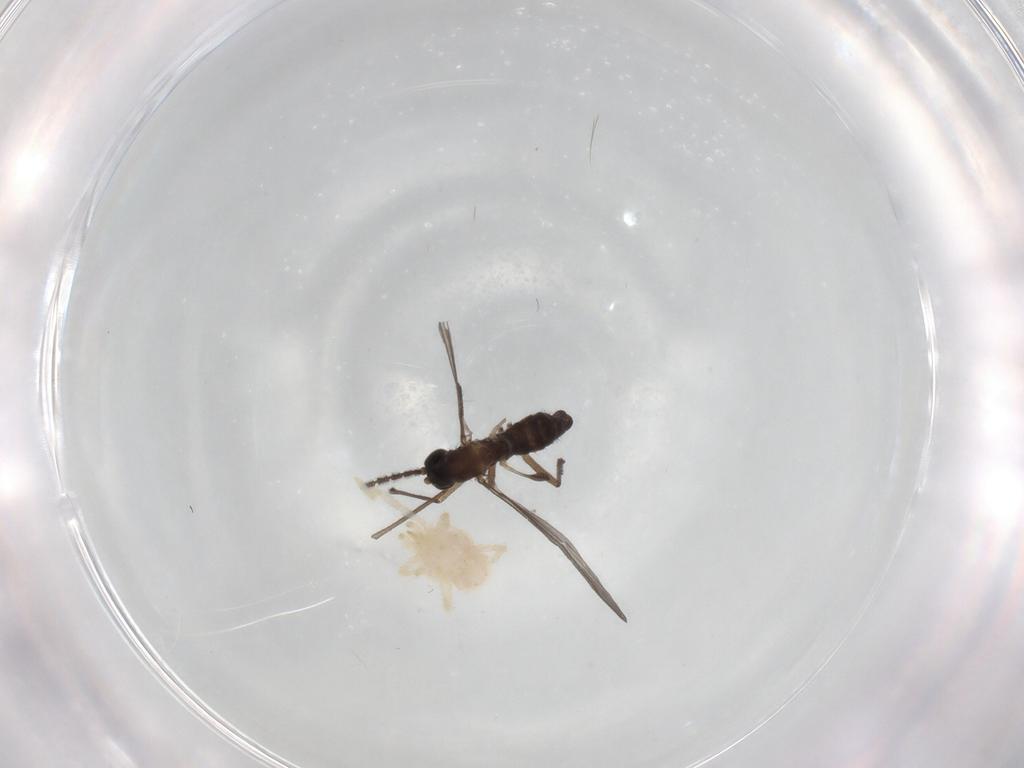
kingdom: Animalia
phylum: Arthropoda
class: Insecta
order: Diptera
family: Sciaridae
